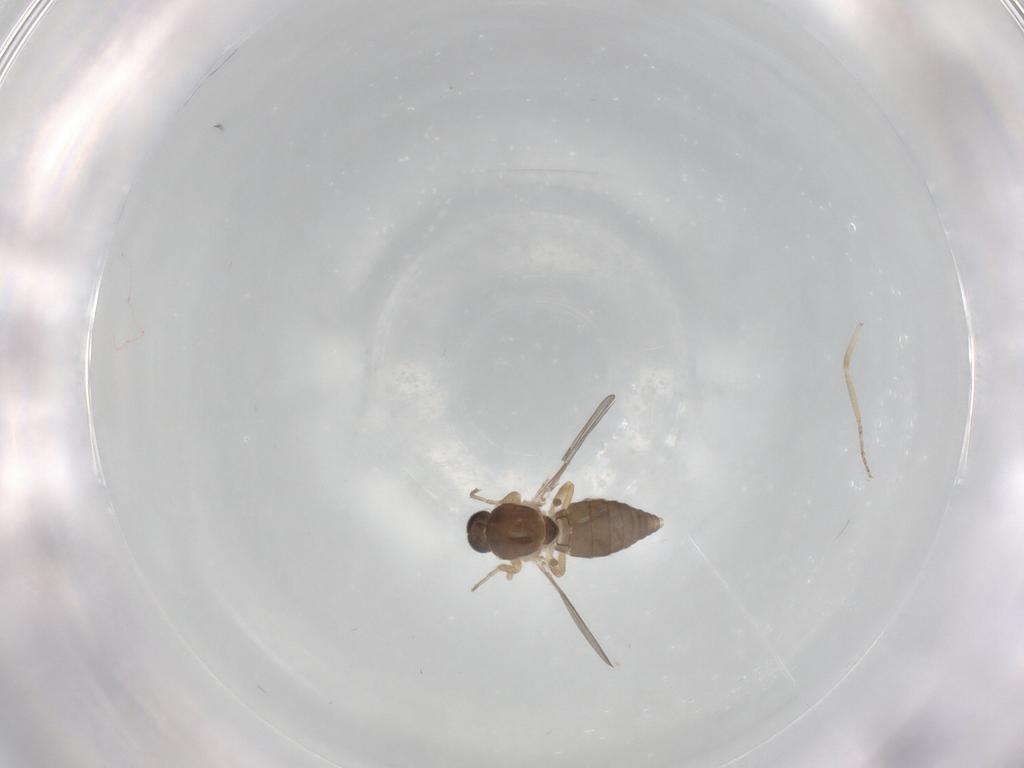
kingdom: Animalia
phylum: Arthropoda
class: Insecta
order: Diptera
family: Ceratopogonidae
